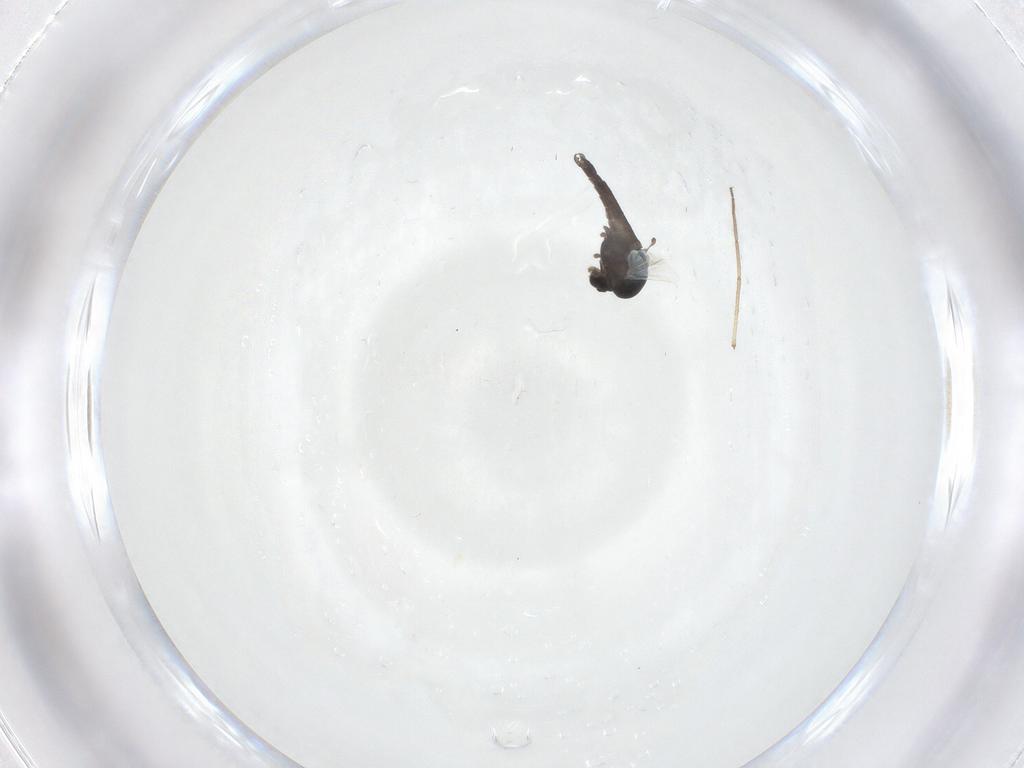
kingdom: Animalia
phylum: Arthropoda
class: Insecta
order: Diptera
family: Chironomidae
